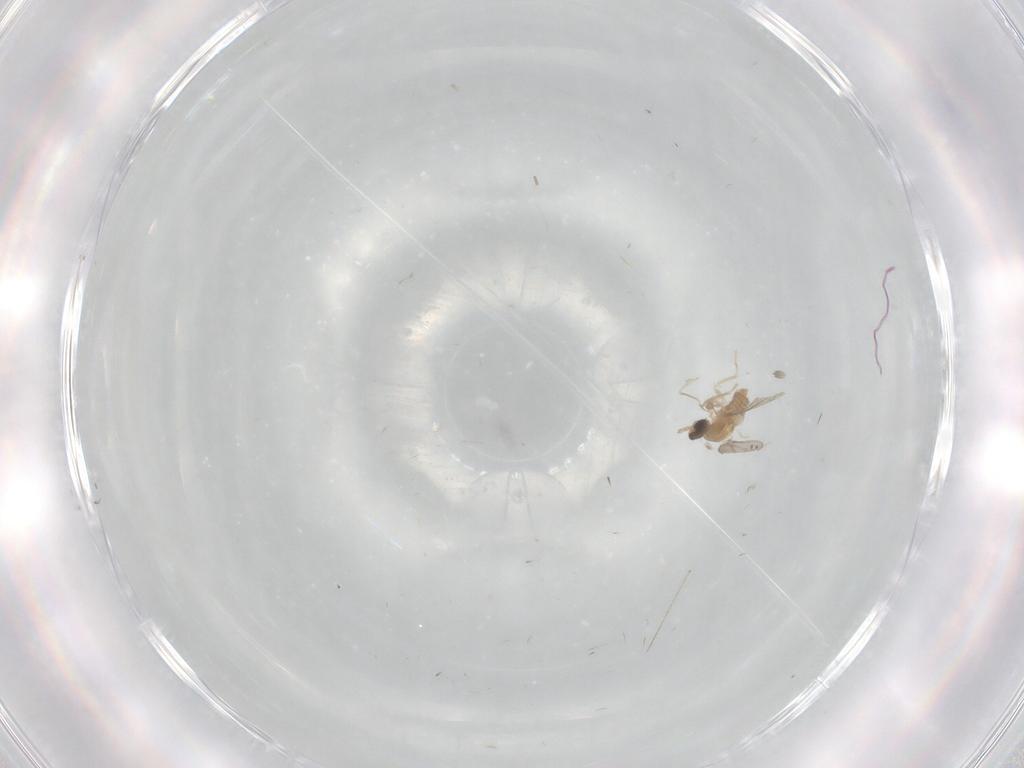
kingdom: Animalia
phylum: Arthropoda
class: Insecta
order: Diptera
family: Cecidomyiidae
